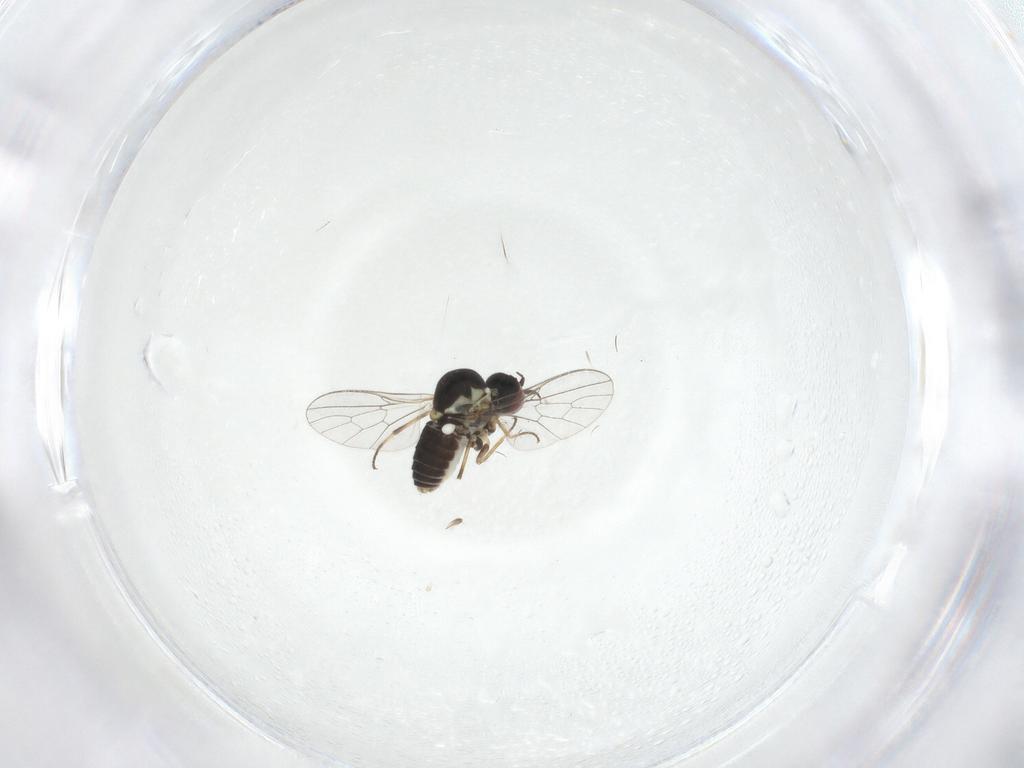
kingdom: Animalia
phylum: Arthropoda
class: Insecta
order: Diptera
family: Mythicomyiidae
